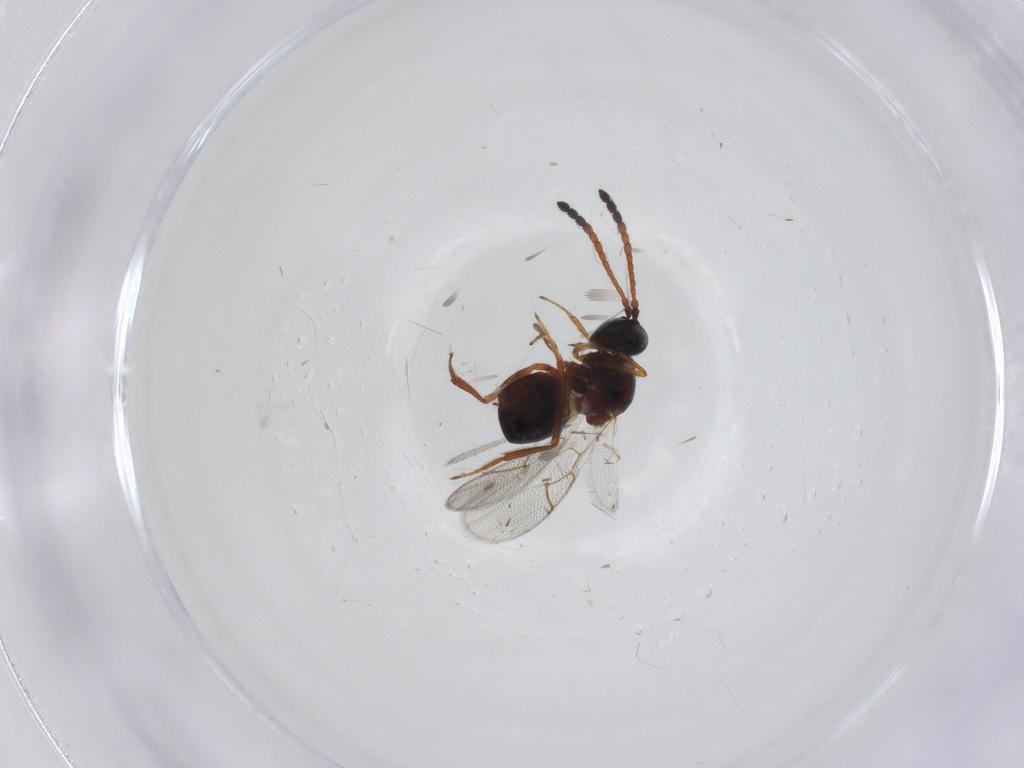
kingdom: Animalia
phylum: Arthropoda
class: Insecta
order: Hymenoptera
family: Figitidae
